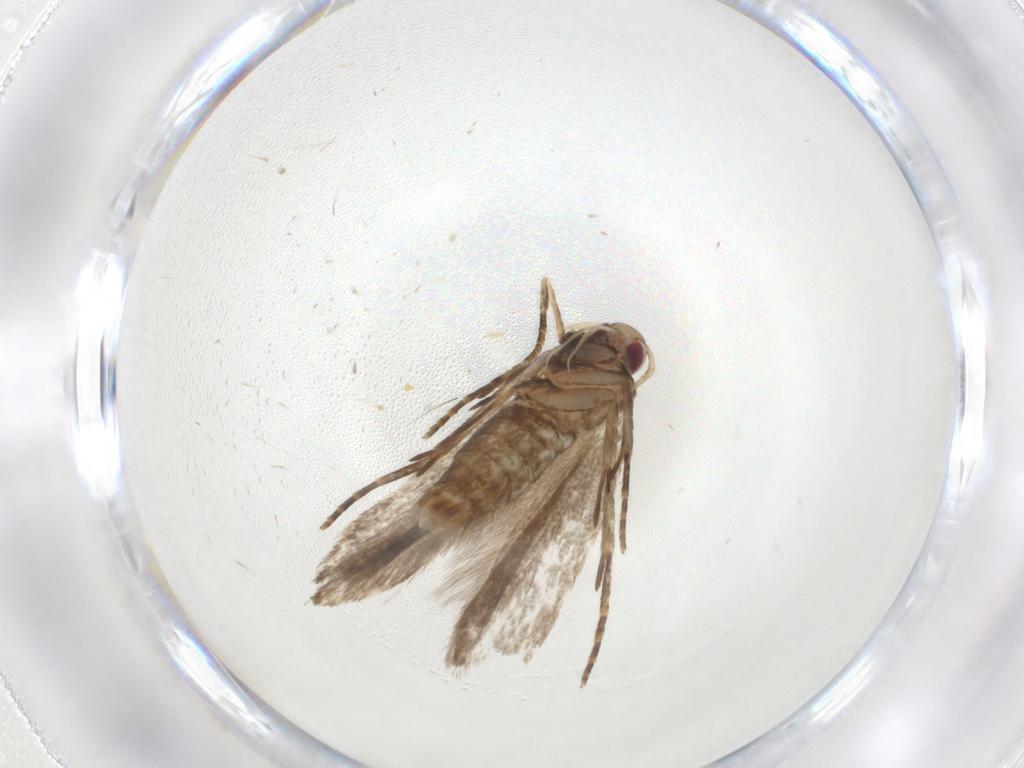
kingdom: Animalia
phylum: Arthropoda
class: Insecta
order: Lepidoptera
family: Gelechiidae
